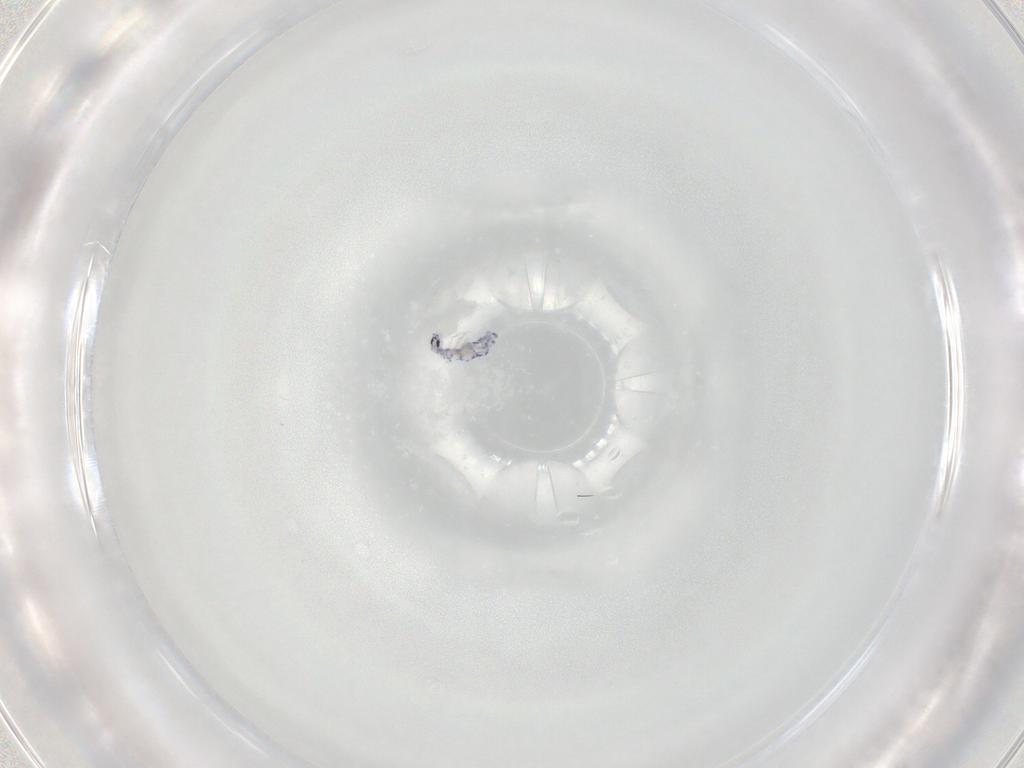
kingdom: Animalia
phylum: Arthropoda
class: Collembola
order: Entomobryomorpha
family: Entomobryidae
